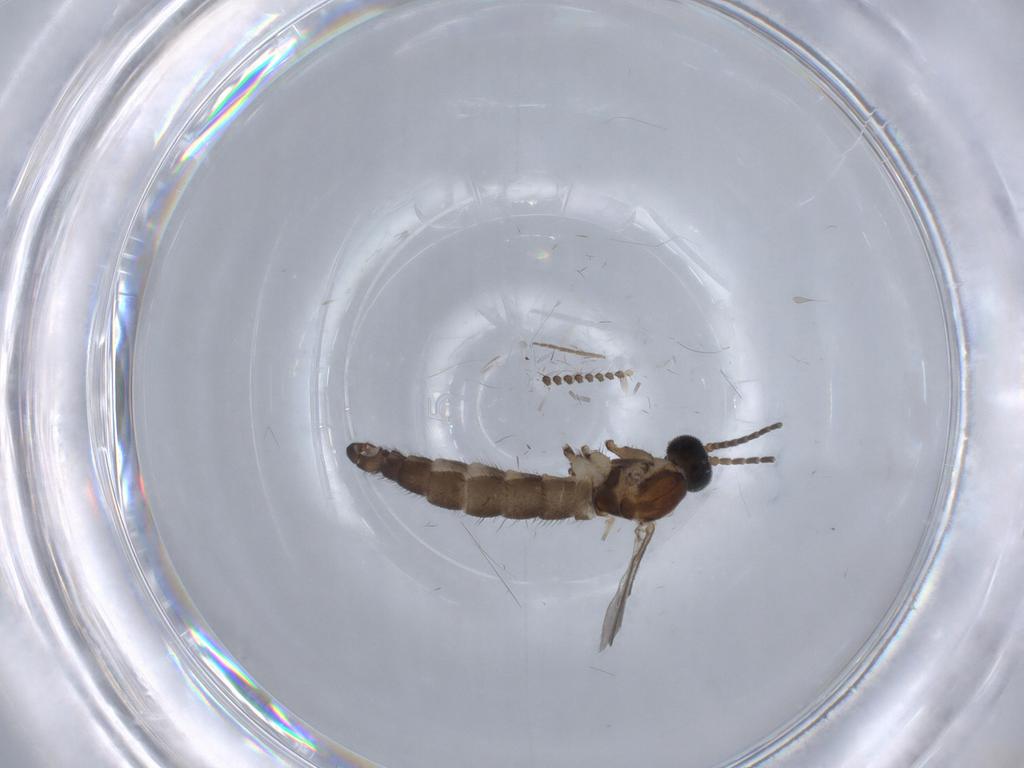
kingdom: Animalia
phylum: Arthropoda
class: Insecta
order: Diptera
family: Sciaridae
